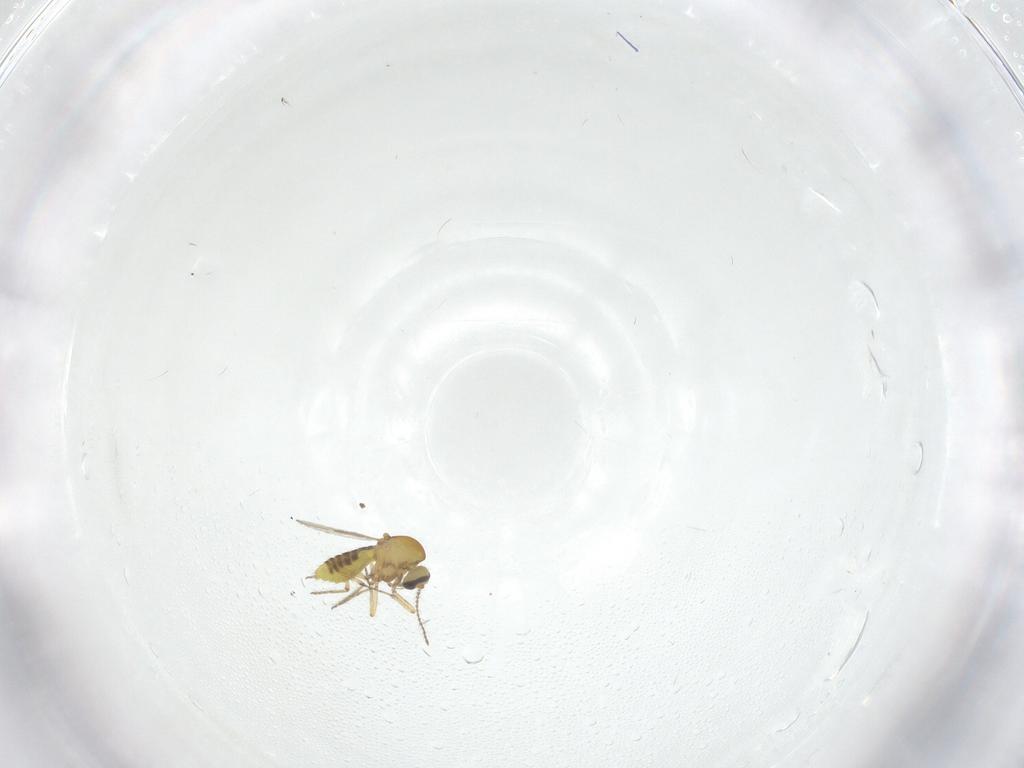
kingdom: Animalia
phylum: Arthropoda
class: Insecta
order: Diptera
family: Ceratopogonidae
